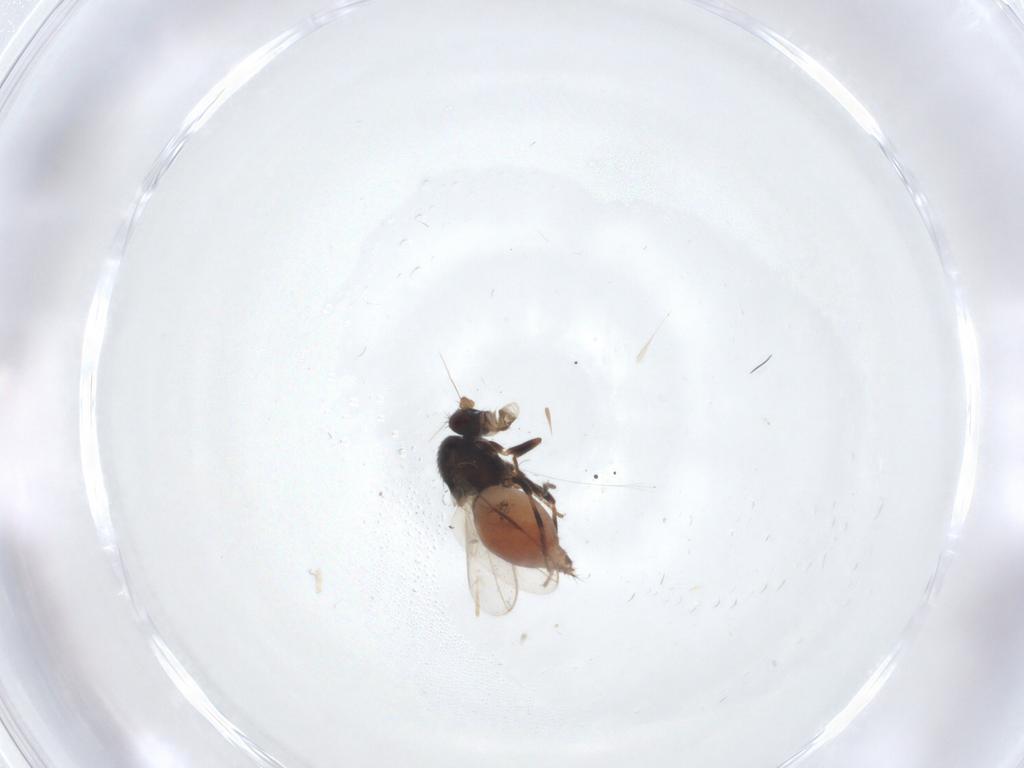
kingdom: Animalia
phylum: Arthropoda
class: Insecta
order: Diptera
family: Sphaeroceridae
